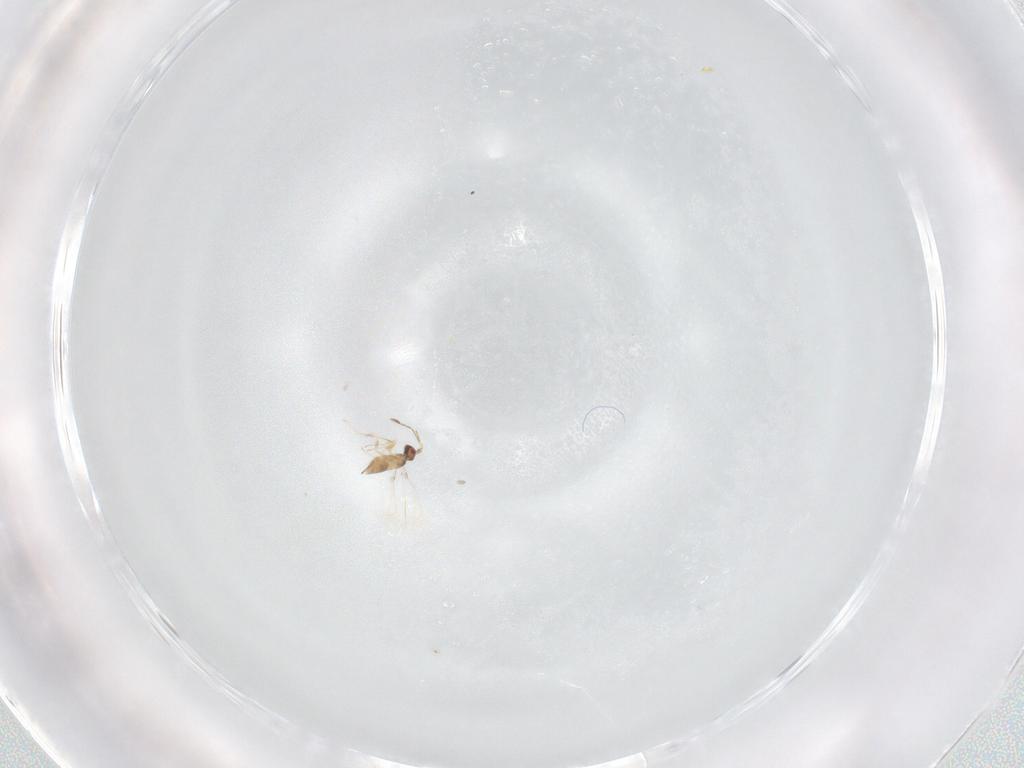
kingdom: Animalia
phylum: Arthropoda
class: Insecta
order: Hymenoptera
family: Mymaridae
